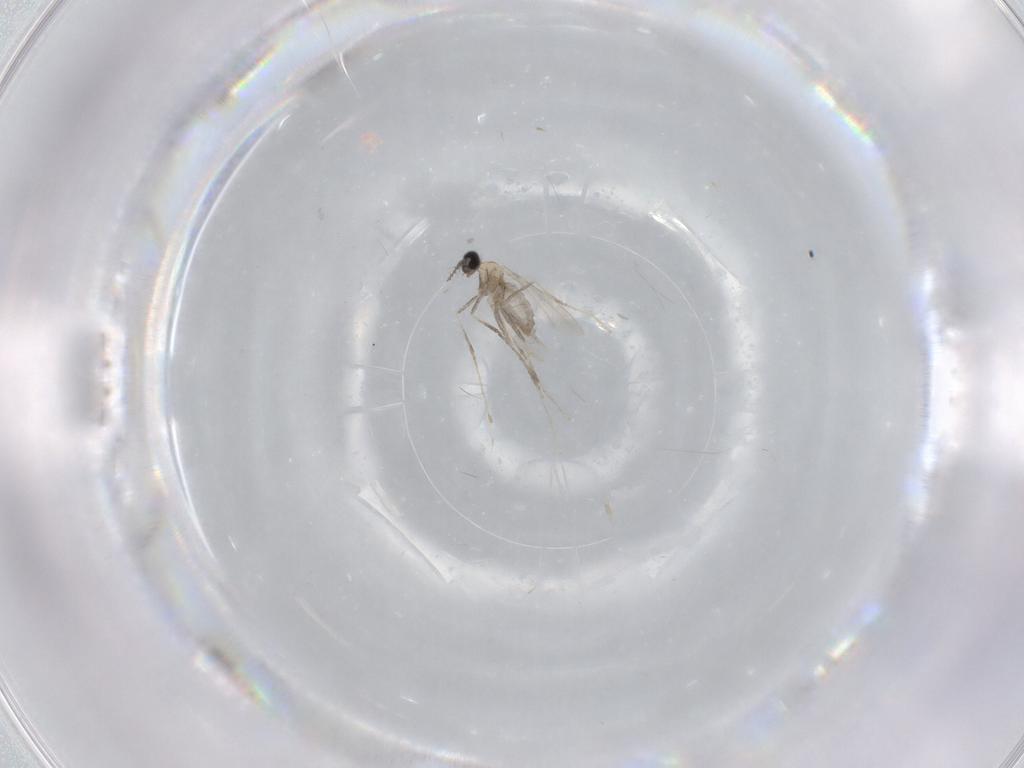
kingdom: Animalia
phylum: Arthropoda
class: Insecta
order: Diptera
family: Cecidomyiidae
